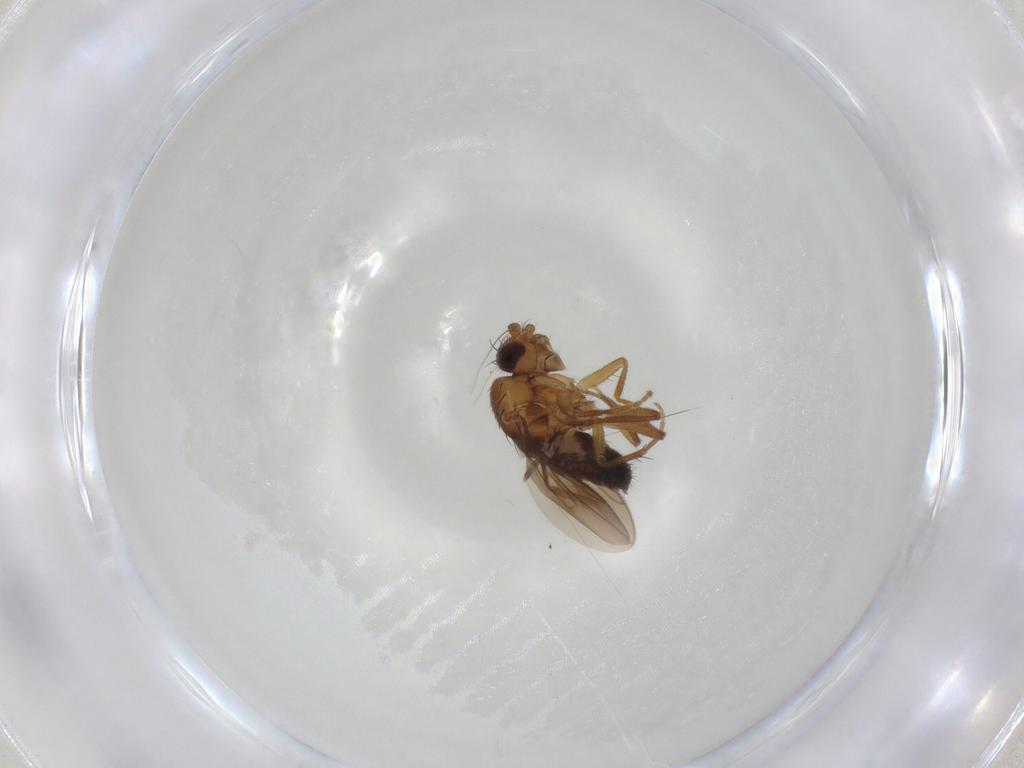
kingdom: Animalia
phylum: Arthropoda
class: Insecta
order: Diptera
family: Sphaeroceridae
